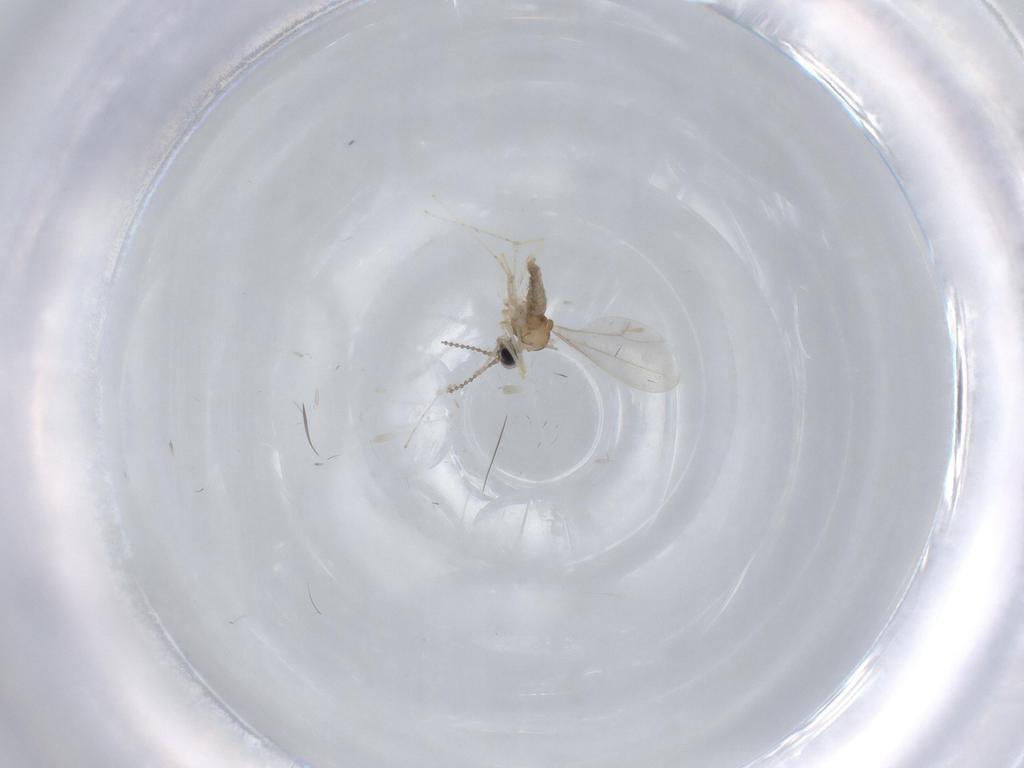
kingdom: Animalia
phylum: Arthropoda
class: Insecta
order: Diptera
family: Cecidomyiidae
